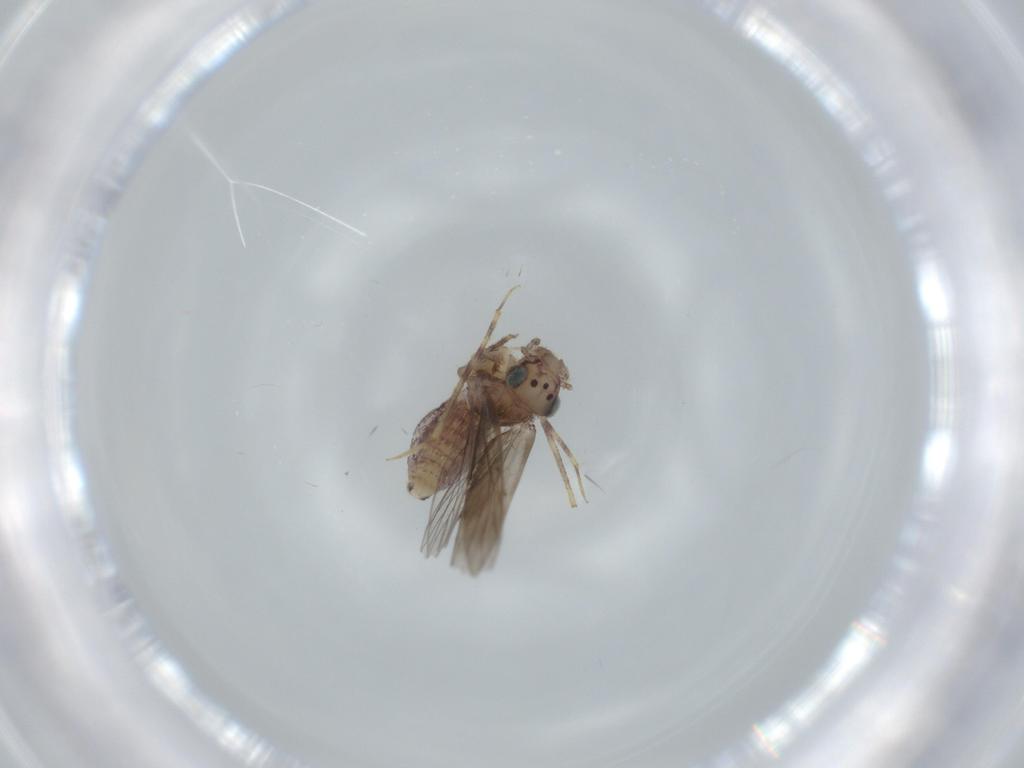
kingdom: Animalia
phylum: Arthropoda
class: Insecta
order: Psocodea
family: Lepidopsocidae
